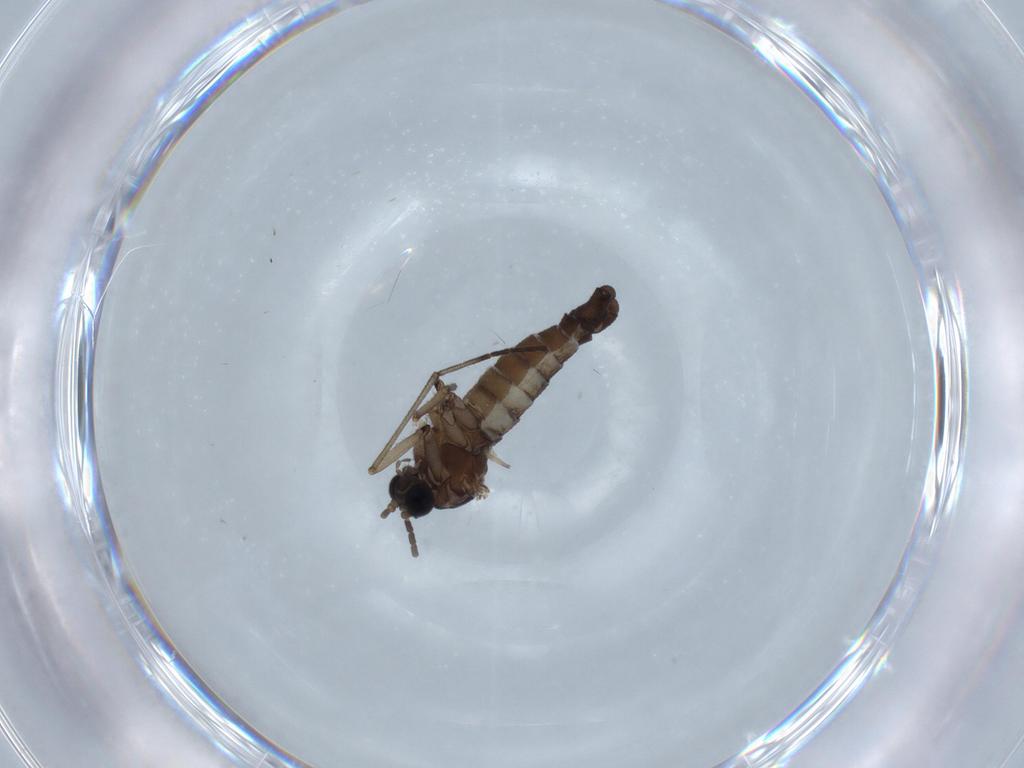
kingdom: Animalia
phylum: Arthropoda
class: Insecta
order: Diptera
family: Sciaridae
